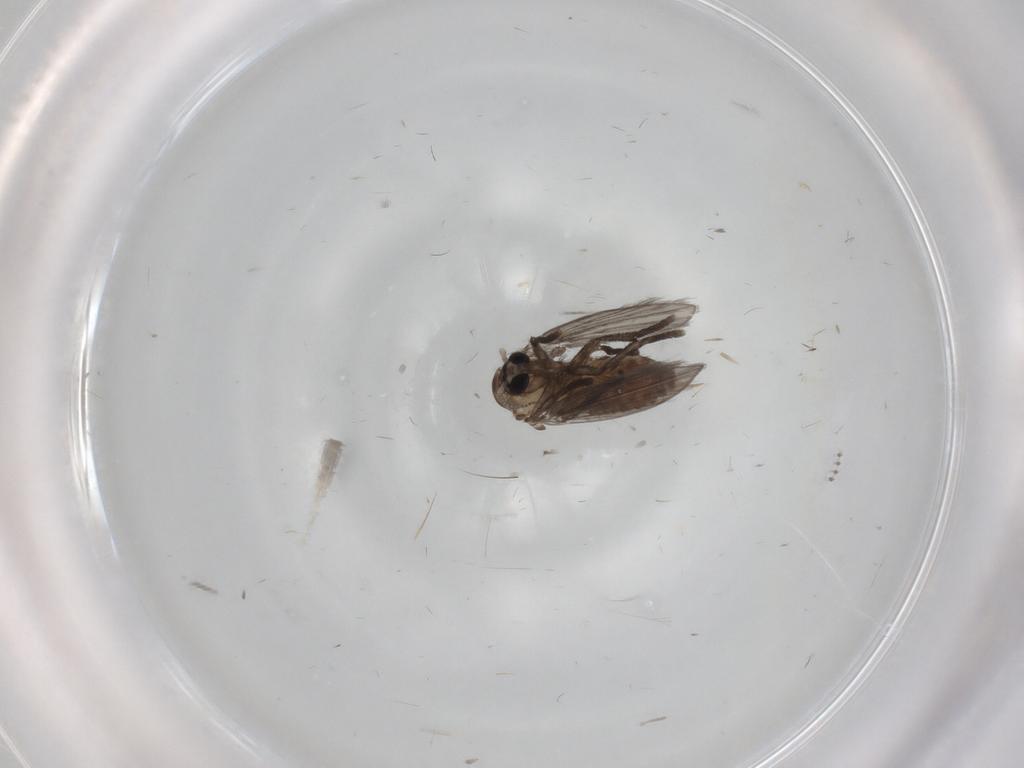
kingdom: Animalia
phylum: Arthropoda
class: Insecta
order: Diptera
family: Psychodidae
